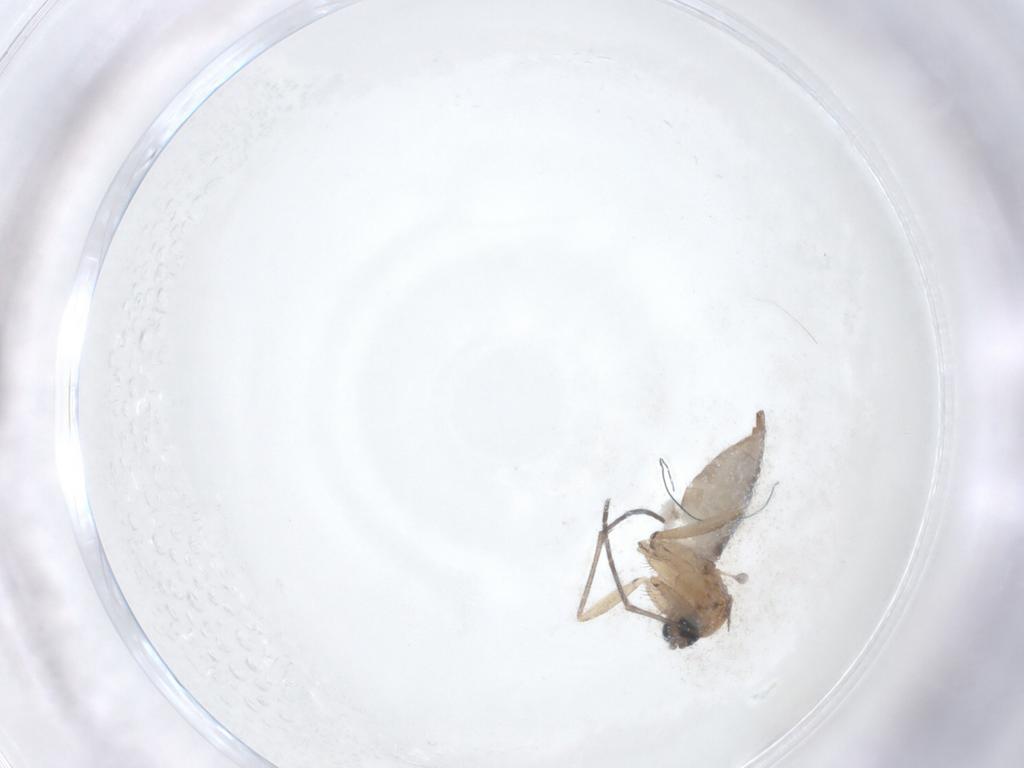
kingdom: Animalia
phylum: Arthropoda
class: Insecta
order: Diptera
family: Sciaridae
